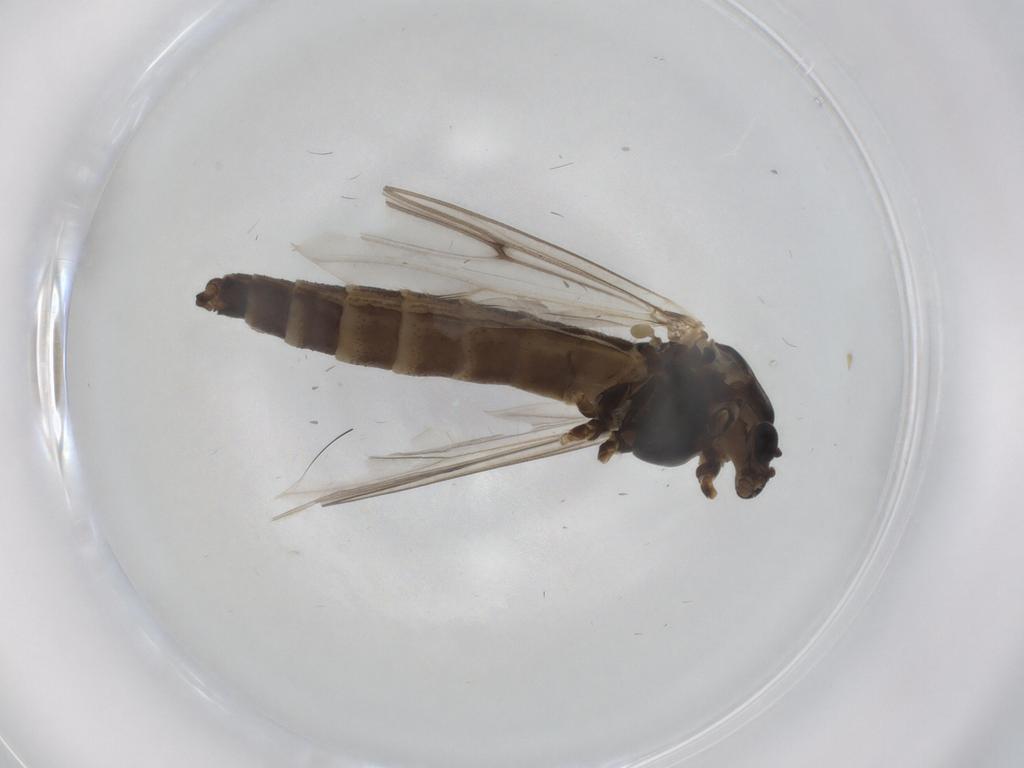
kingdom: Animalia
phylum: Arthropoda
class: Insecta
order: Diptera
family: Chironomidae
